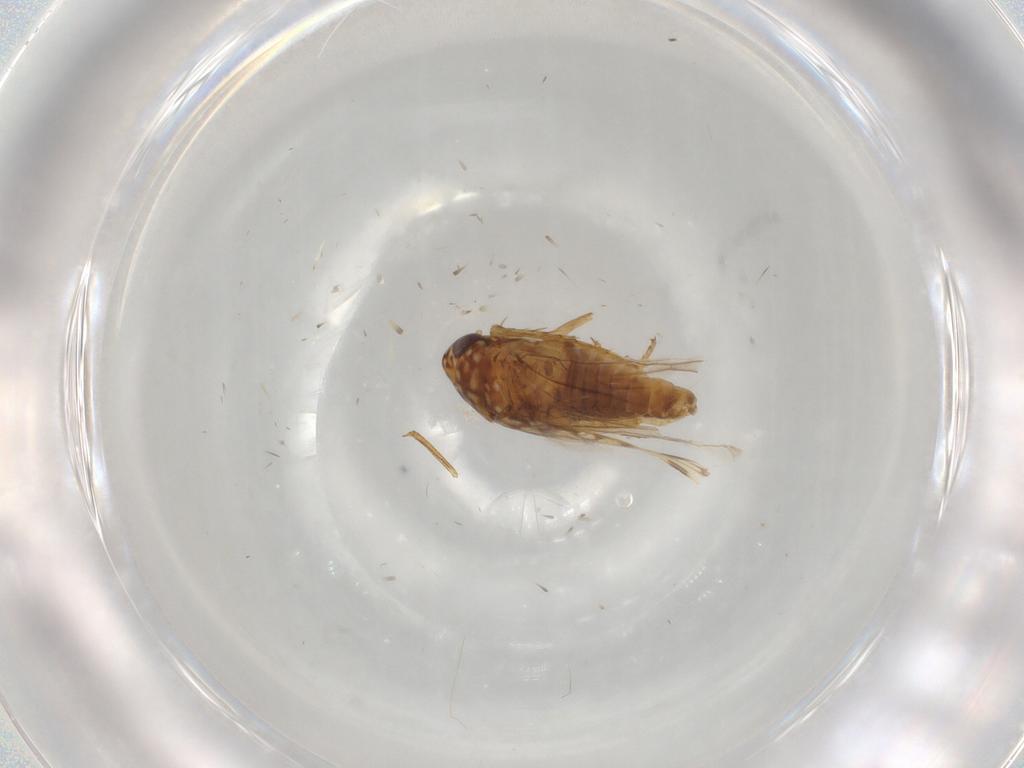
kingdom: Animalia
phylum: Arthropoda
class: Insecta
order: Hemiptera
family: Cicadellidae
